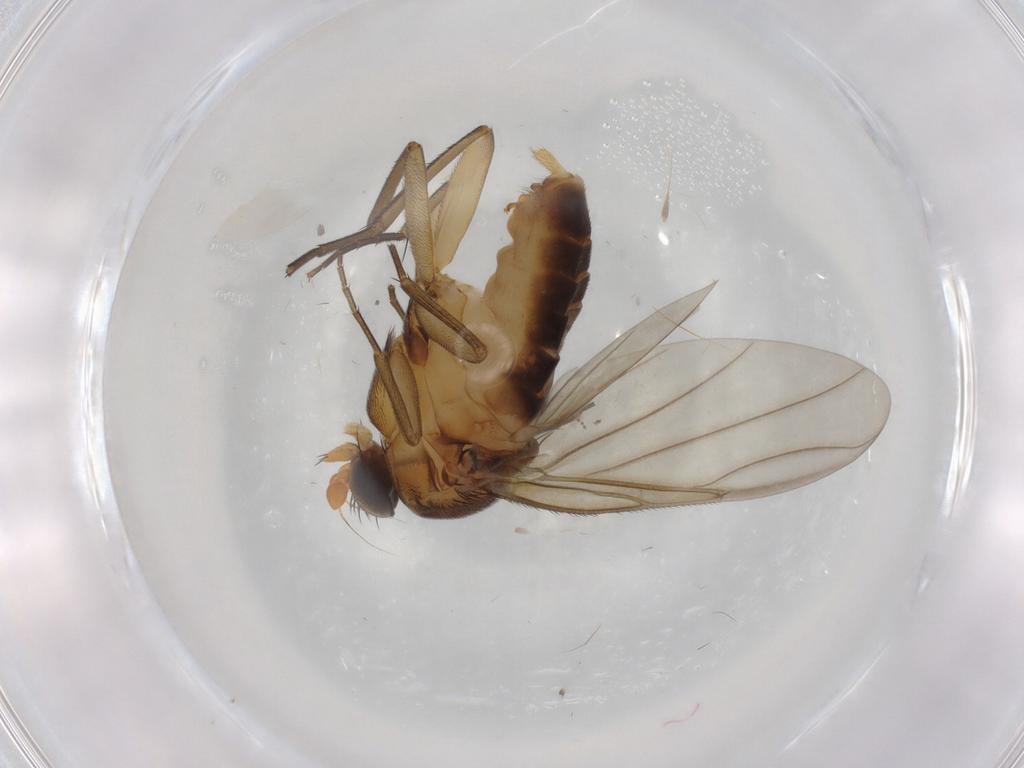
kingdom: Animalia
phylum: Arthropoda
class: Insecta
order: Diptera
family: Phoridae
